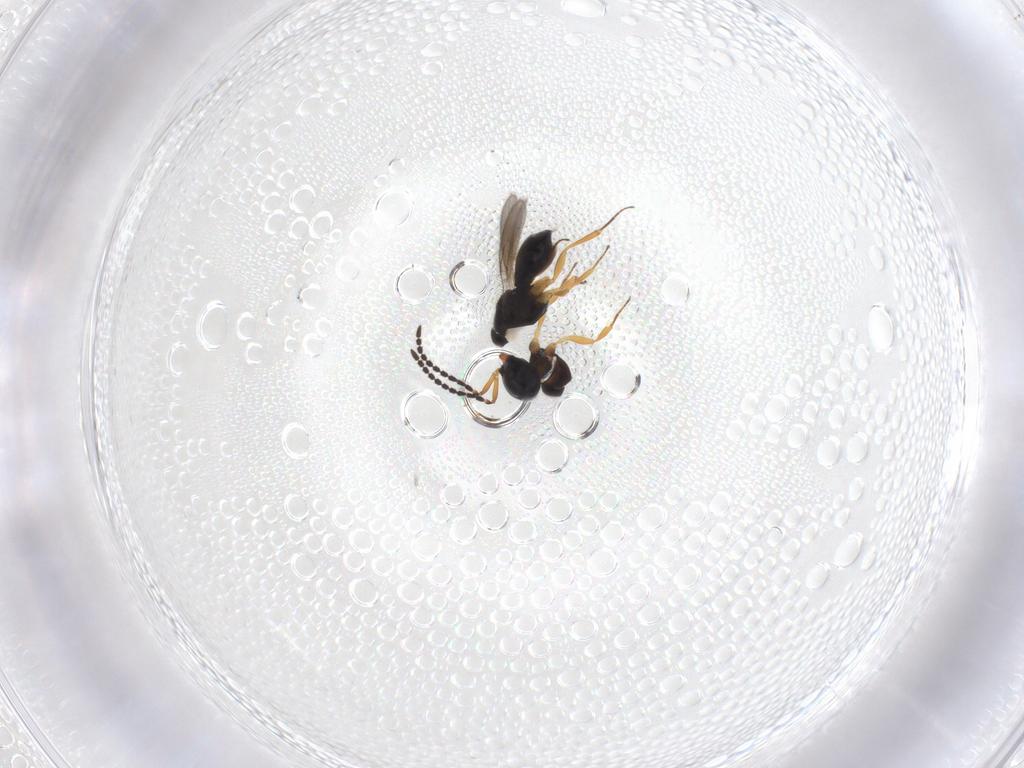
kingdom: Animalia
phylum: Arthropoda
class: Insecta
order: Hymenoptera
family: Scelionidae
